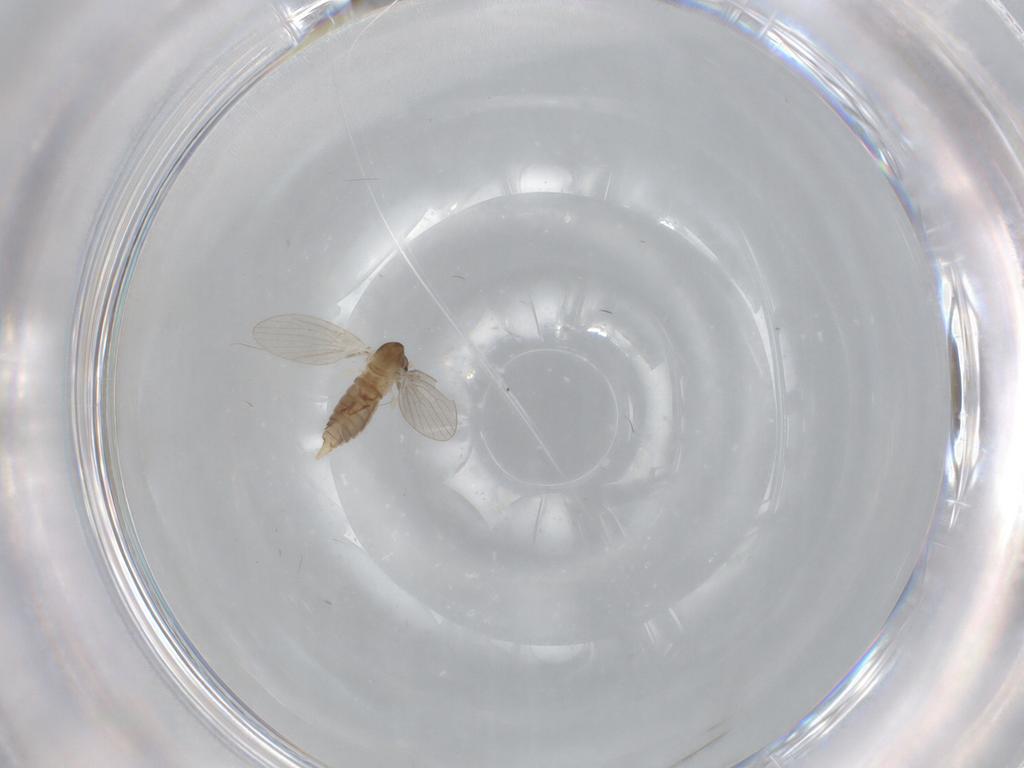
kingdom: Animalia
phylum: Arthropoda
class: Insecta
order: Diptera
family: Psychodidae
